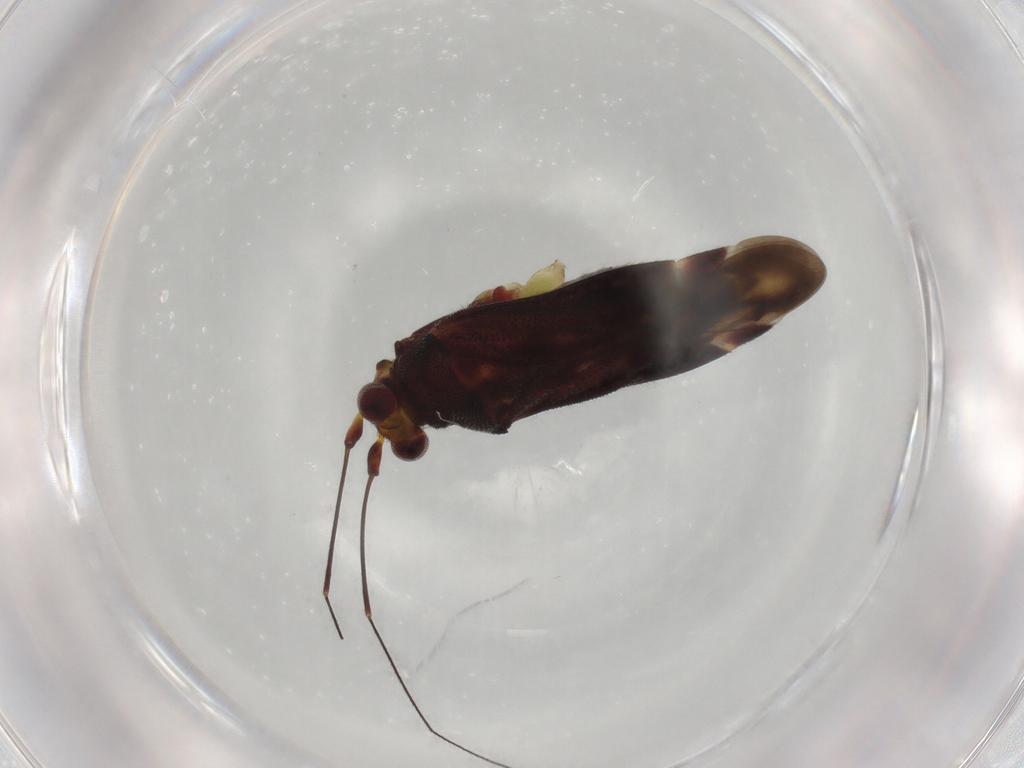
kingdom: Animalia
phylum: Arthropoda
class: Insecta
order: Hemiptera
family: Miridae
